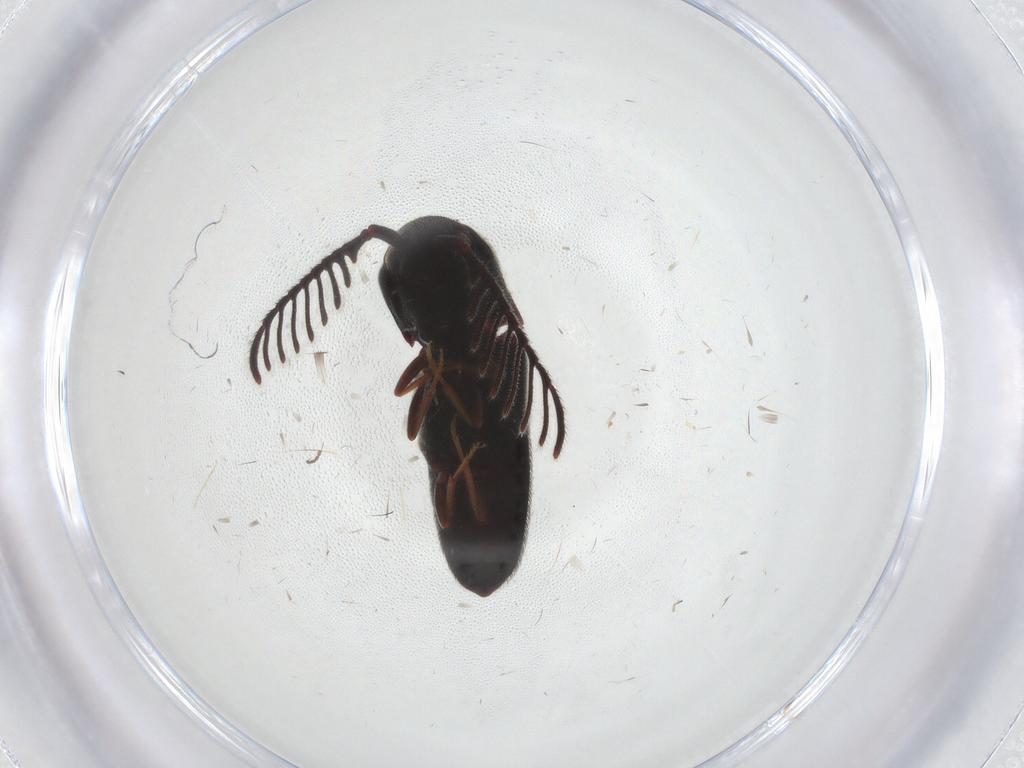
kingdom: Animalia
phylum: Arthropoda
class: Insecta
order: Coleoptera
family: Eucnemidae
